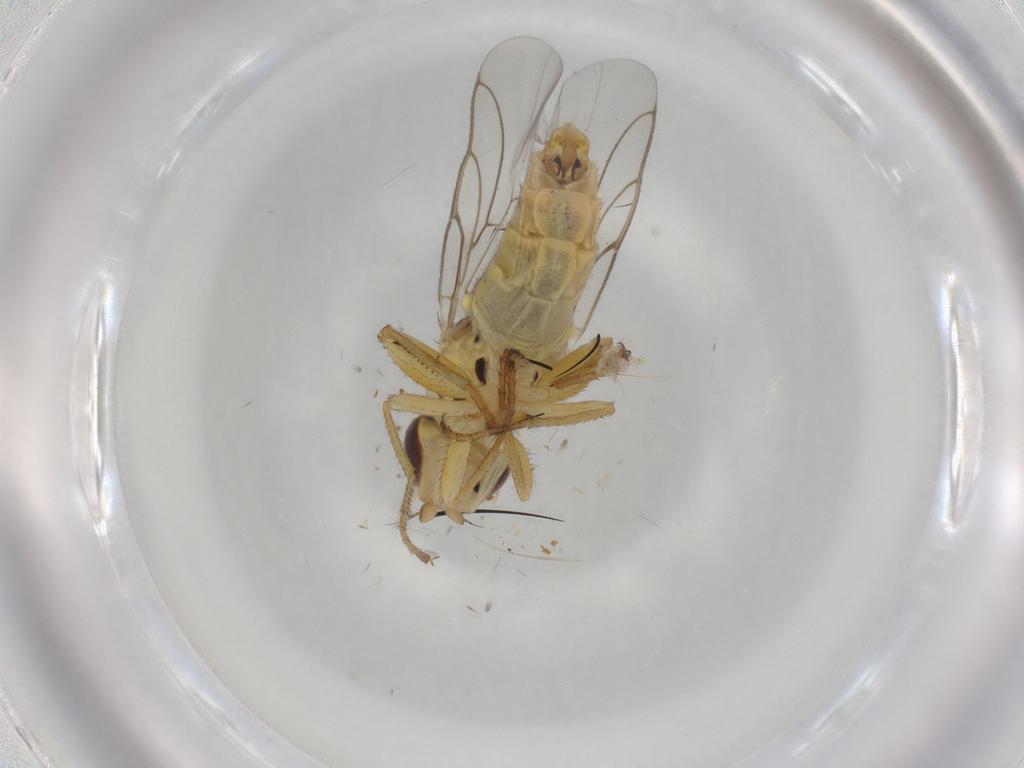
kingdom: Animalia
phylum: Arthropoda
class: Insecta
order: Diptera
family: Chloropidae
